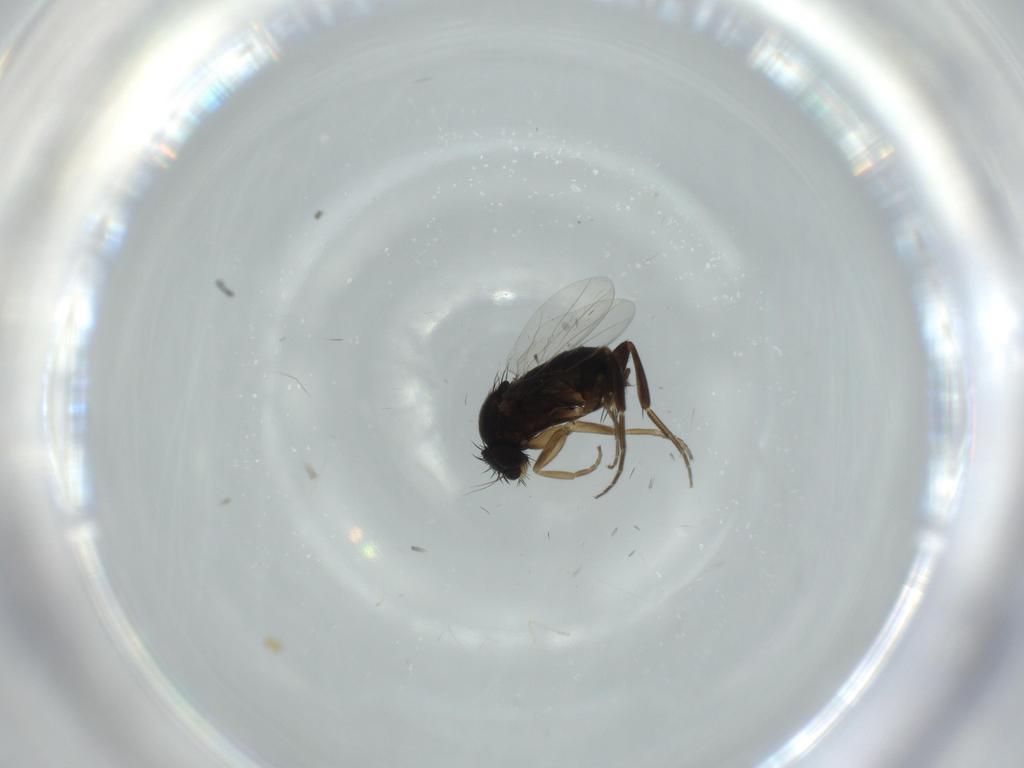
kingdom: Animalia
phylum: Arthropoda
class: Insecta
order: Diptera
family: Phoridae
